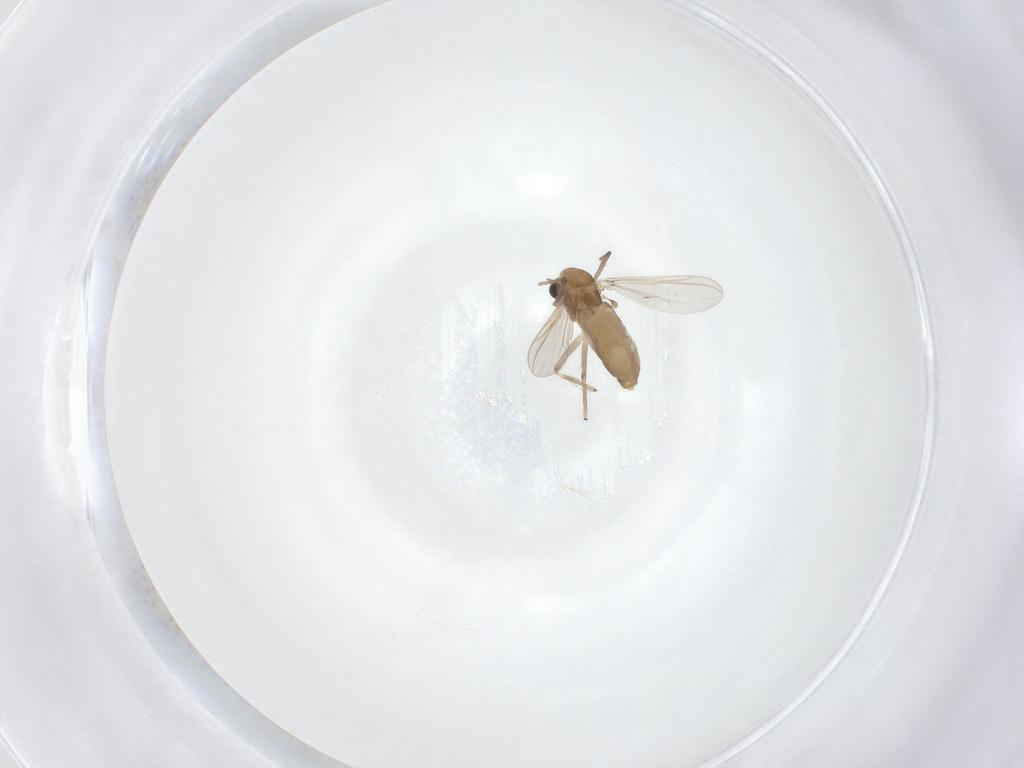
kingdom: Animalia
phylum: Arthropoda
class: Insecta
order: Diptera
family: Chironomidae
